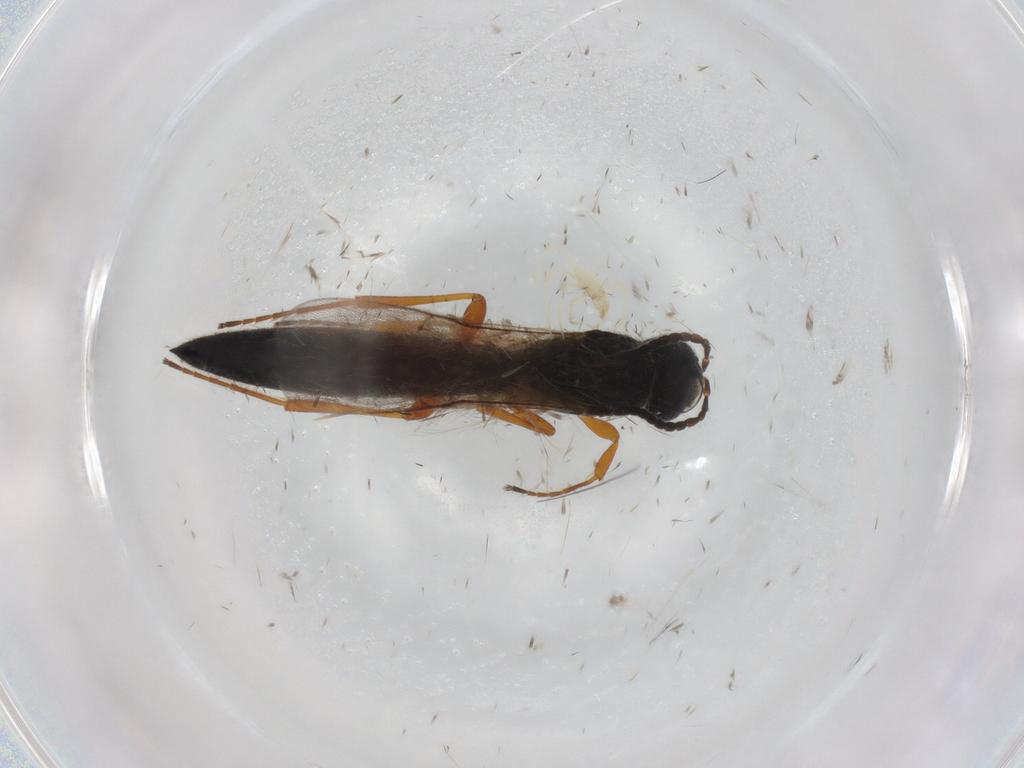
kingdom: Animalia
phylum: Arthropoda
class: Insecta
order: Hymenoptera
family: Scelionidae
